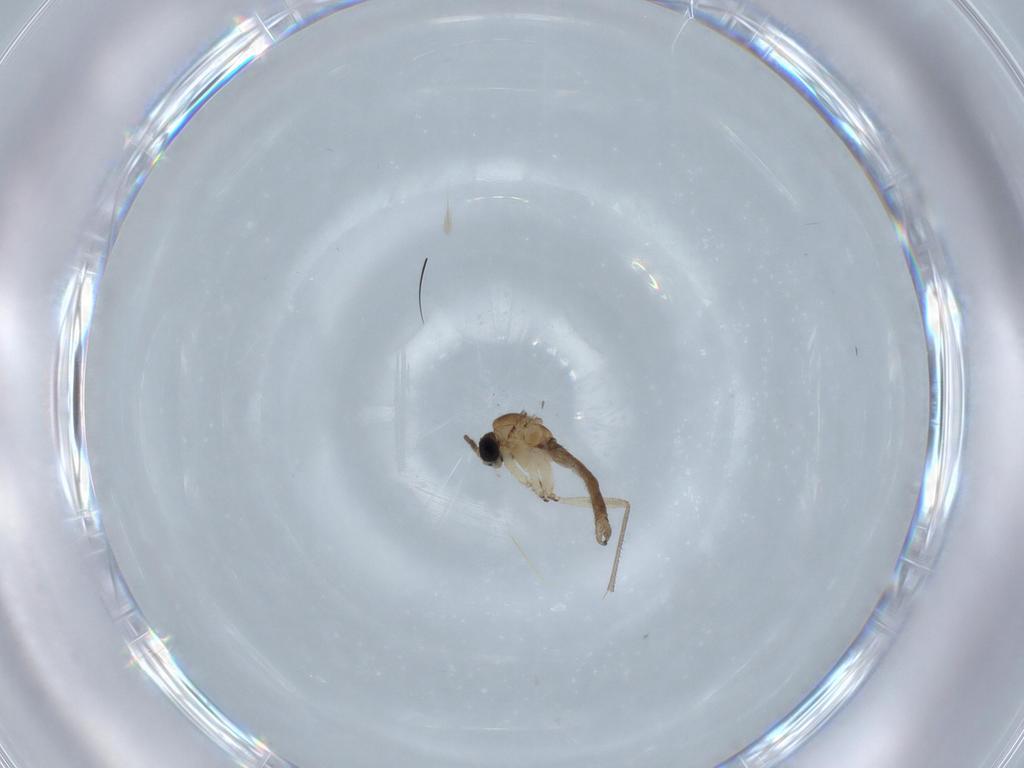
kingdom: Animalia
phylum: Arthropoda
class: Insecta
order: Diptera
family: Sciaridae
